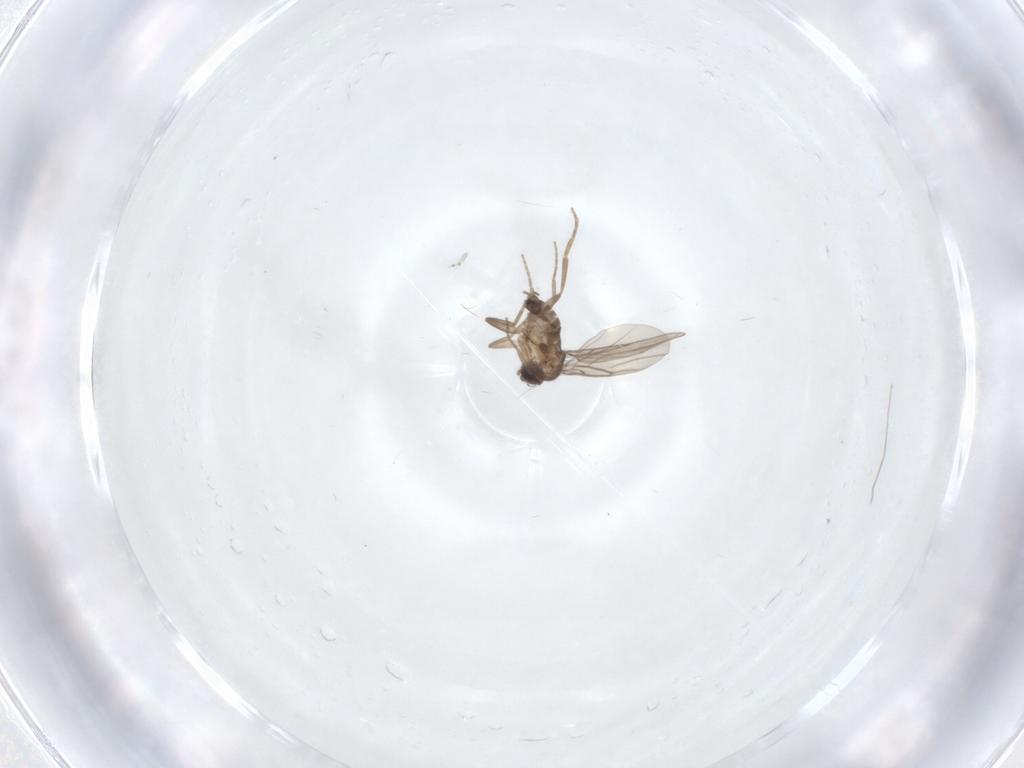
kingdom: Animalia
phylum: Arthropoda
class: Insecta
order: Diptera
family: Phoridae
